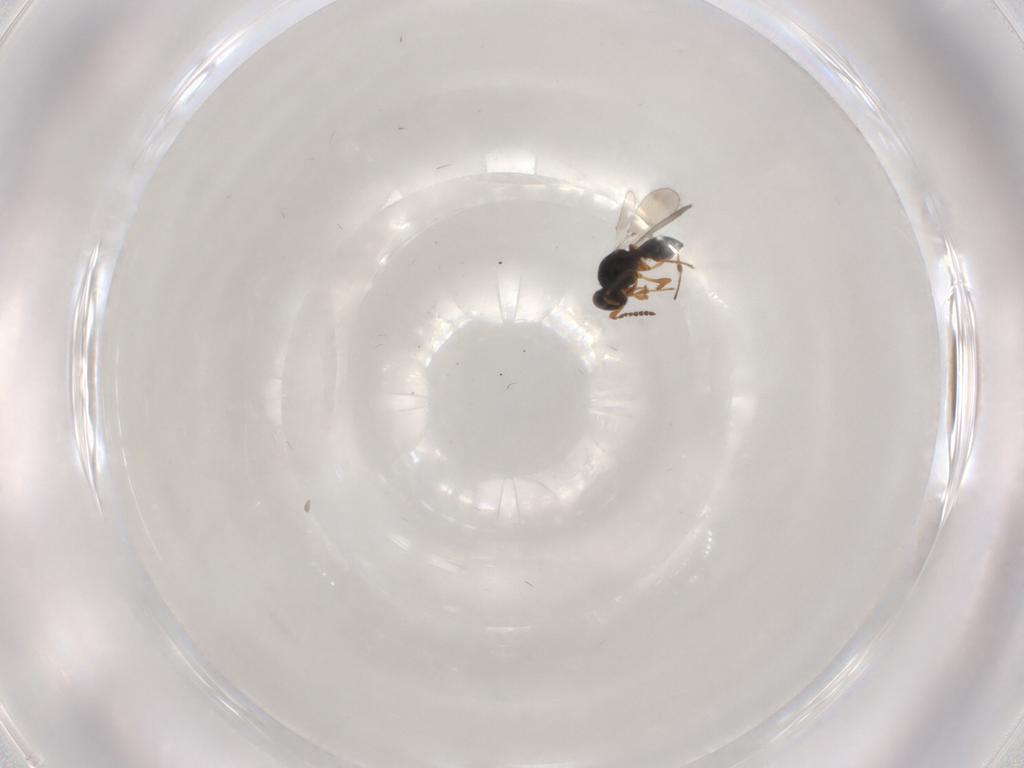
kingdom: Animalia
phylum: Arthropoda
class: Insecta
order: Hymenoptera
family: Platygastridae
